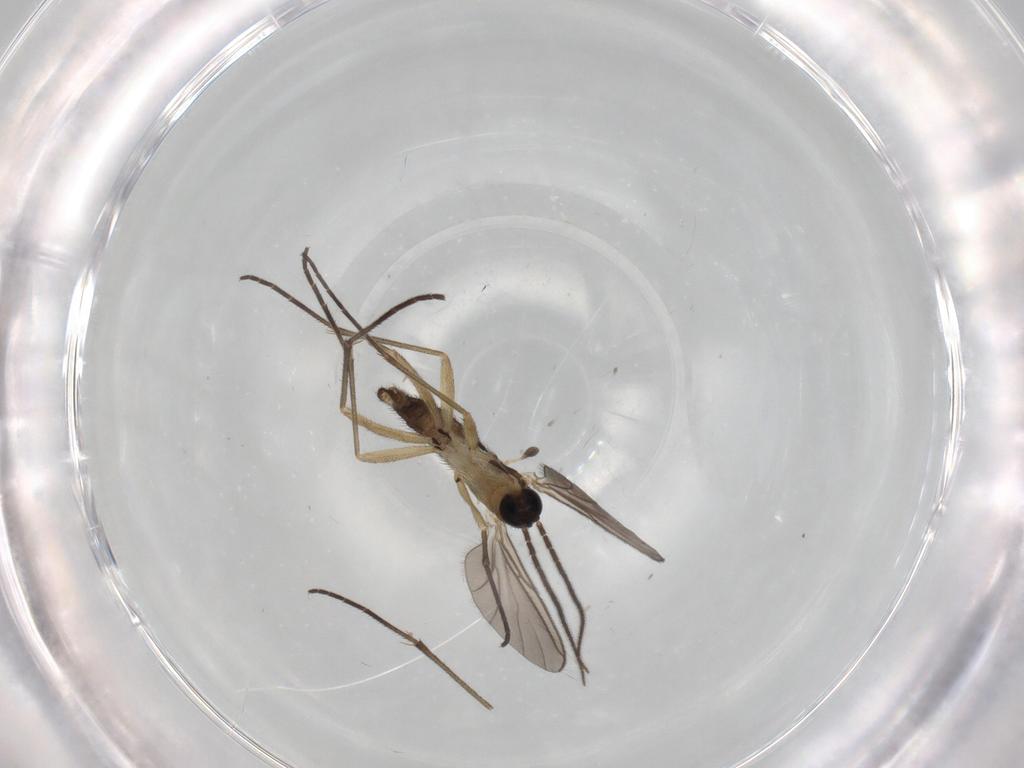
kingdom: Animalia
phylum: Arthropoda
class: Insecta
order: Diptera
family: Sciaridae
